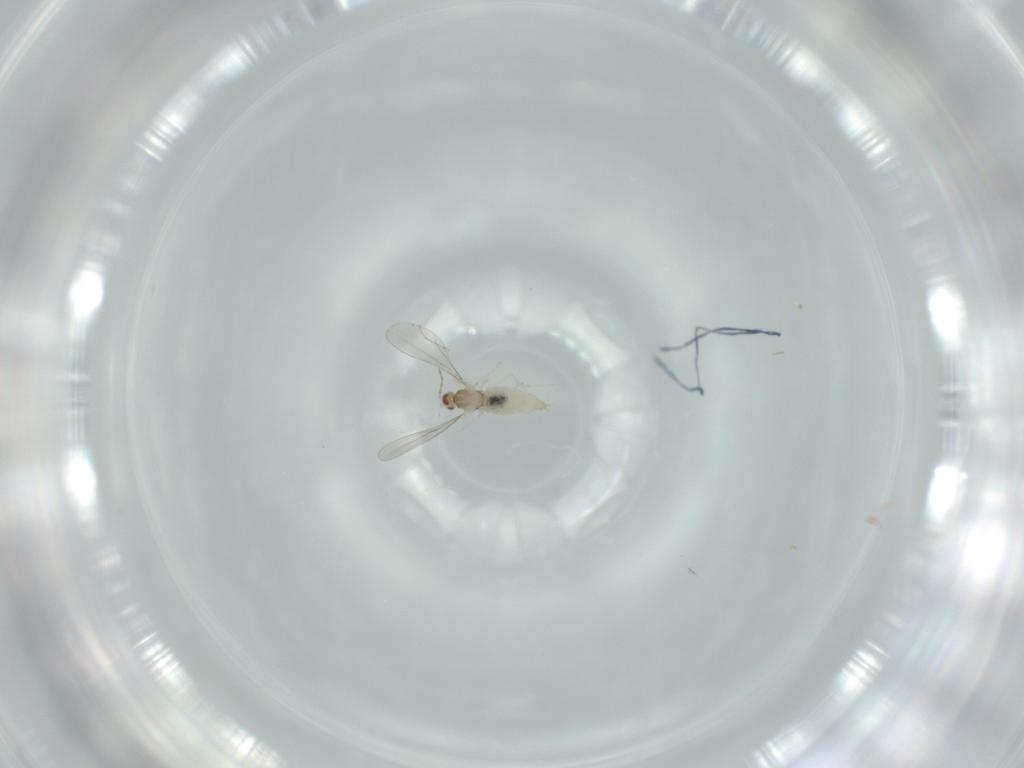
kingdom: Animalia
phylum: Arthropoda
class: Insecta
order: Diptera
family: Cecidomyiidae
